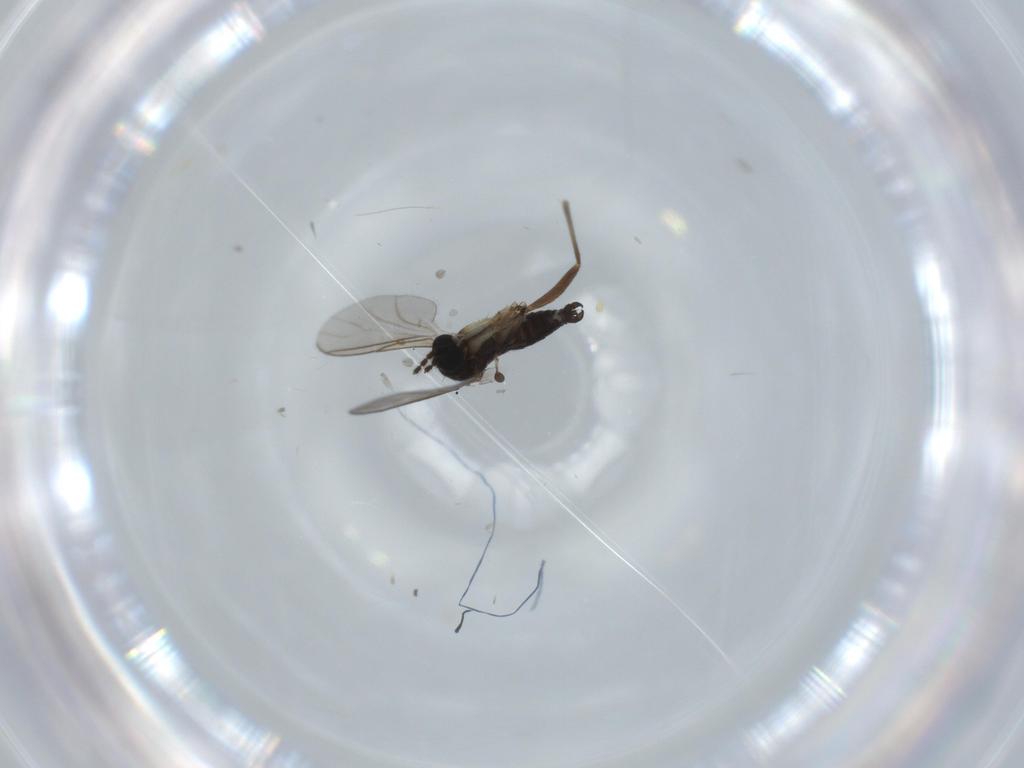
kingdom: Animalia
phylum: Arthropoda
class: Insecta
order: Diptera
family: Sciaridae
